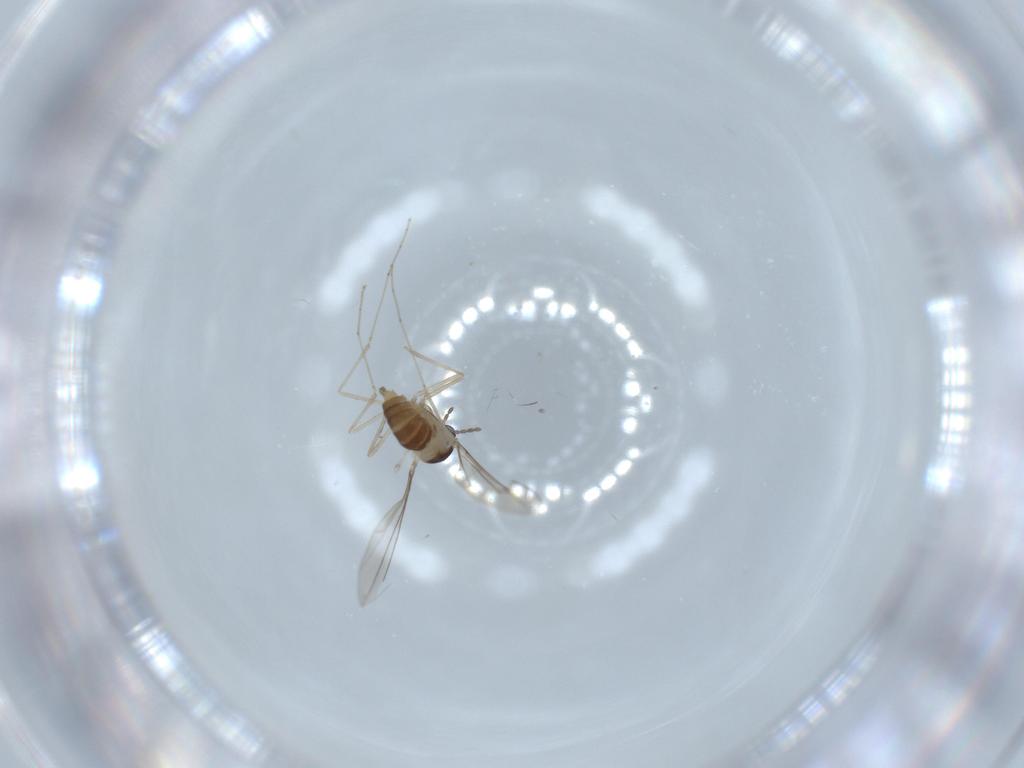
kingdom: Animalia
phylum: Arthropoda
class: Insecta
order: Diptera
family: Cecidomyiidae
